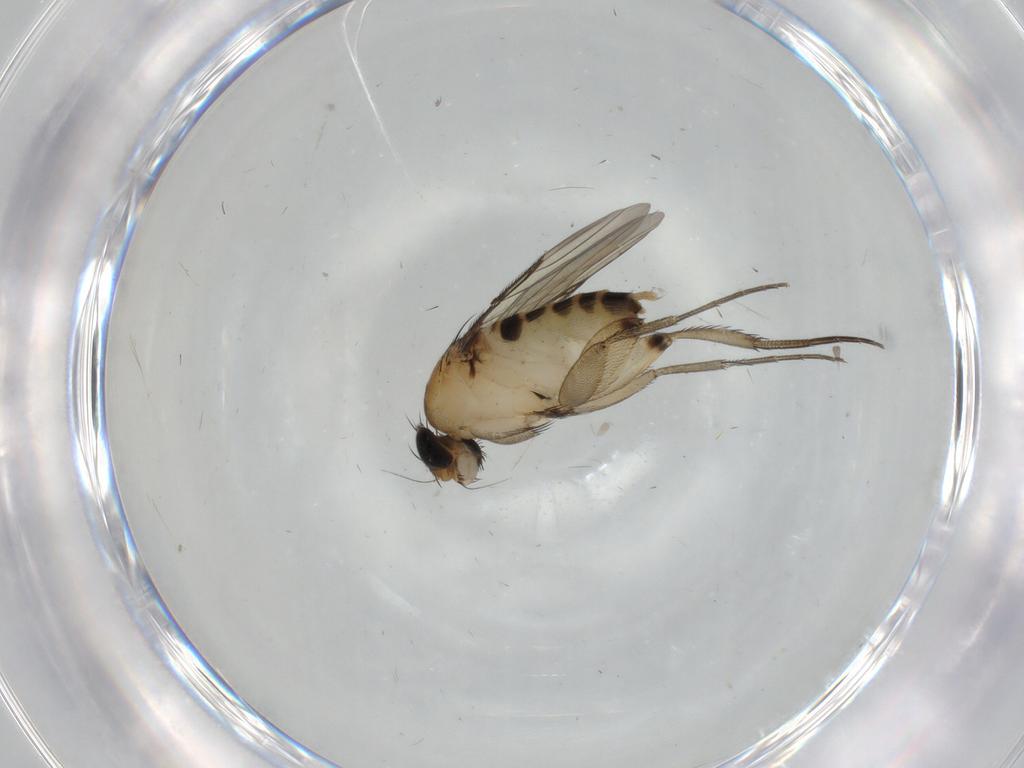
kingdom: Animalia
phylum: Arthropoda
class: Insecta
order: Diptera
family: Phoridae
